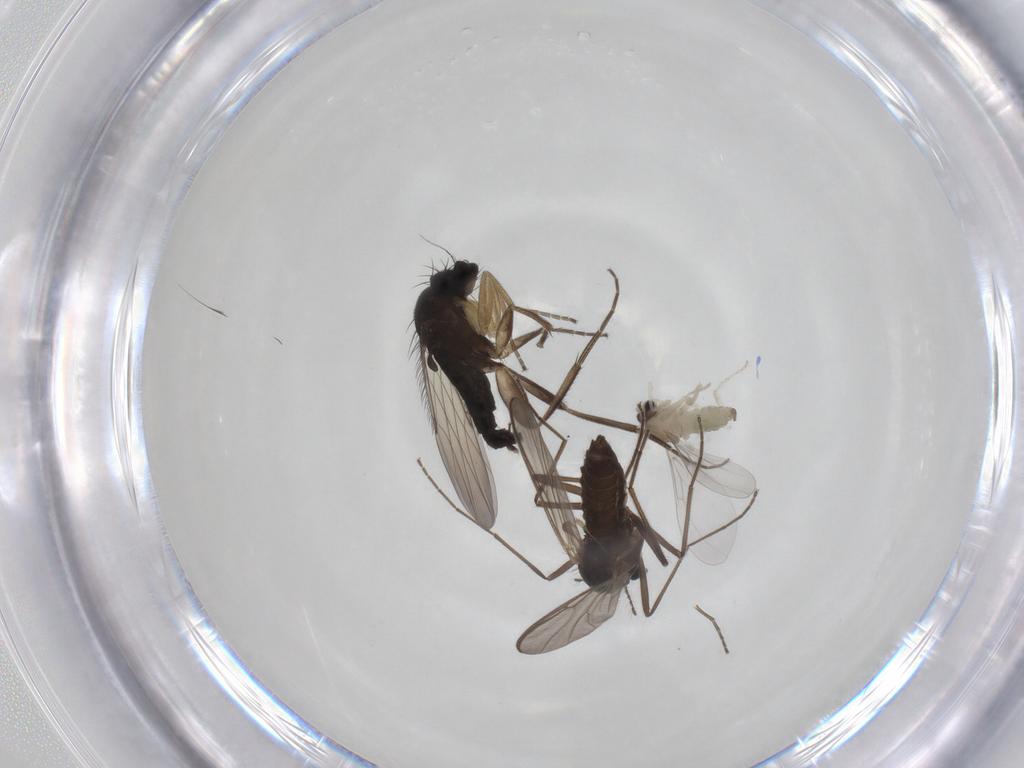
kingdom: Animalia
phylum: Arthropoda
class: Insecta
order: Diptera
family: Chironomidae
